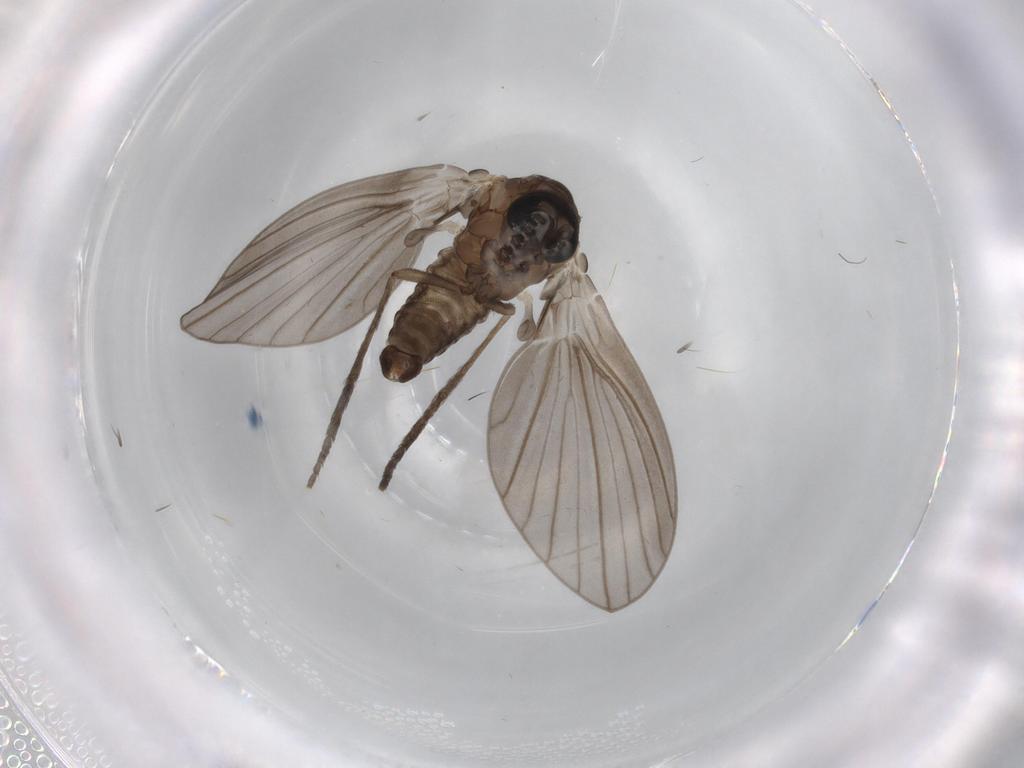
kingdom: Animalia
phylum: Arthropoda
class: Insecta
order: Diptera
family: Psychodidae
